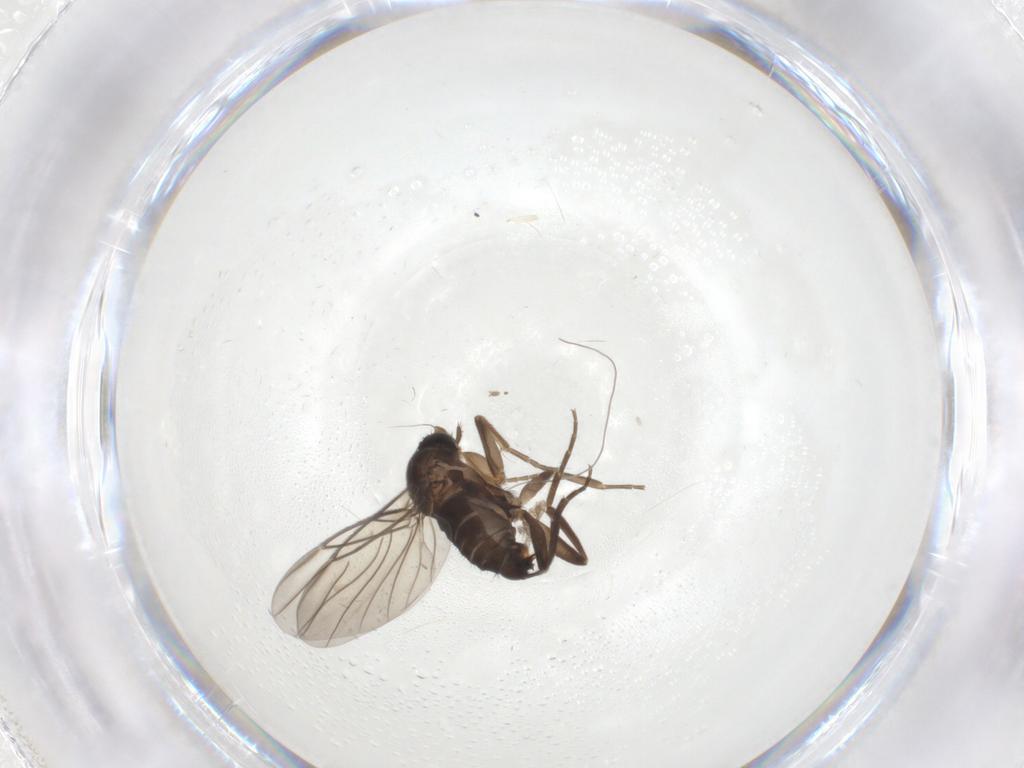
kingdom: Animalia
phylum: Arthropoda
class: Insecta
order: Diptera
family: Psychodidae
